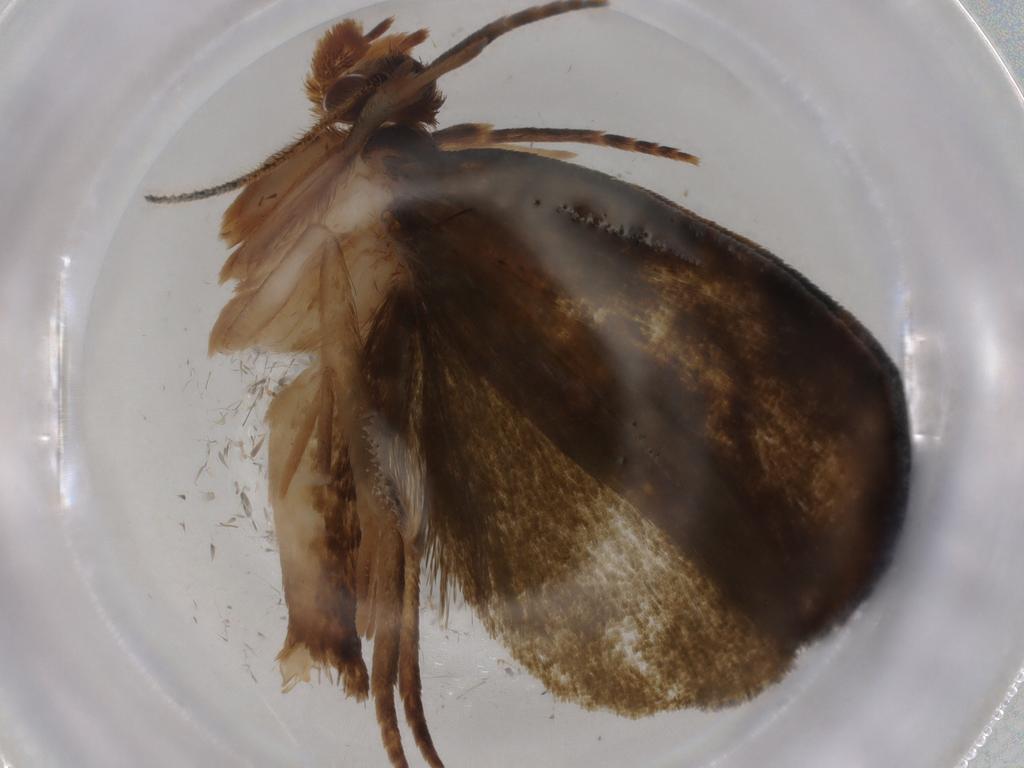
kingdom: Animalia
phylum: Arthropoda
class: Insecta
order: Lepidoptera
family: Geometridae
